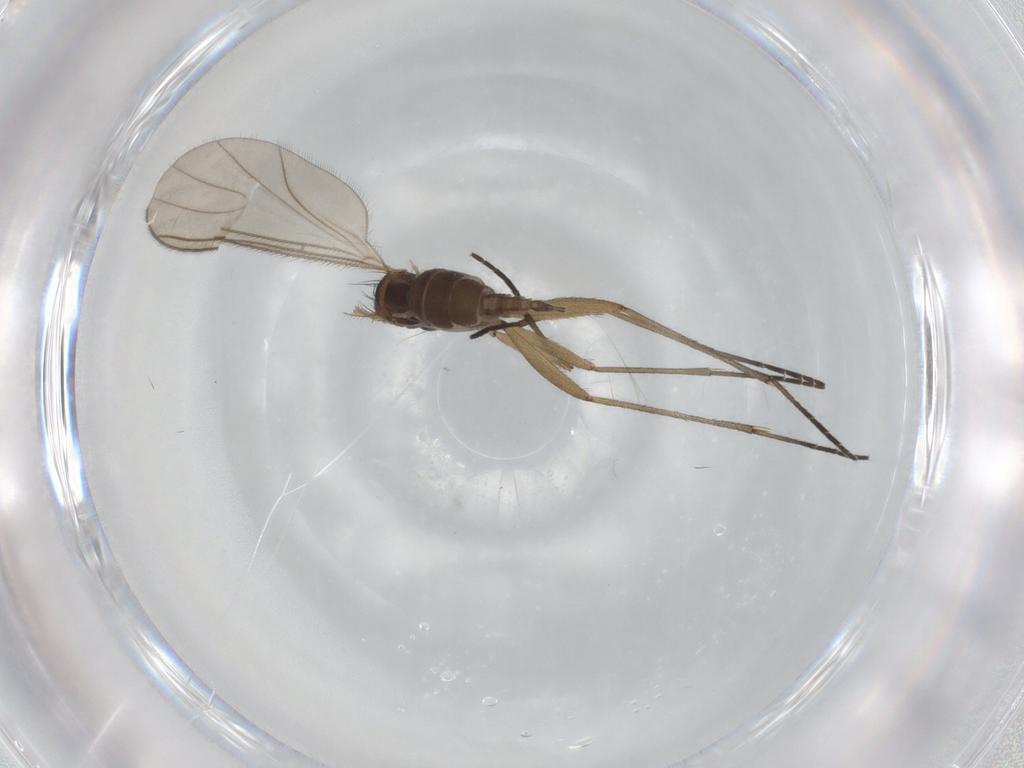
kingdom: Animalia
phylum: Arthropoda
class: Insecta
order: Diptera
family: Sciaridae
